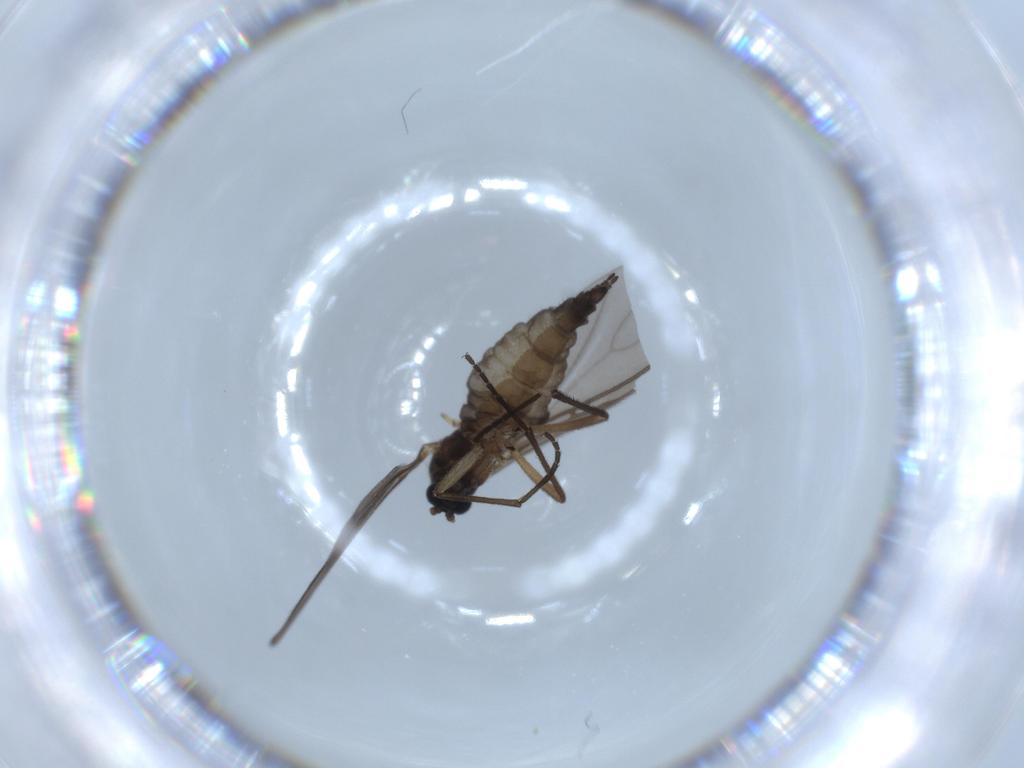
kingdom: Animalia
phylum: Arthropoda
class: Insecta
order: Diptera
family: Sciaridae
